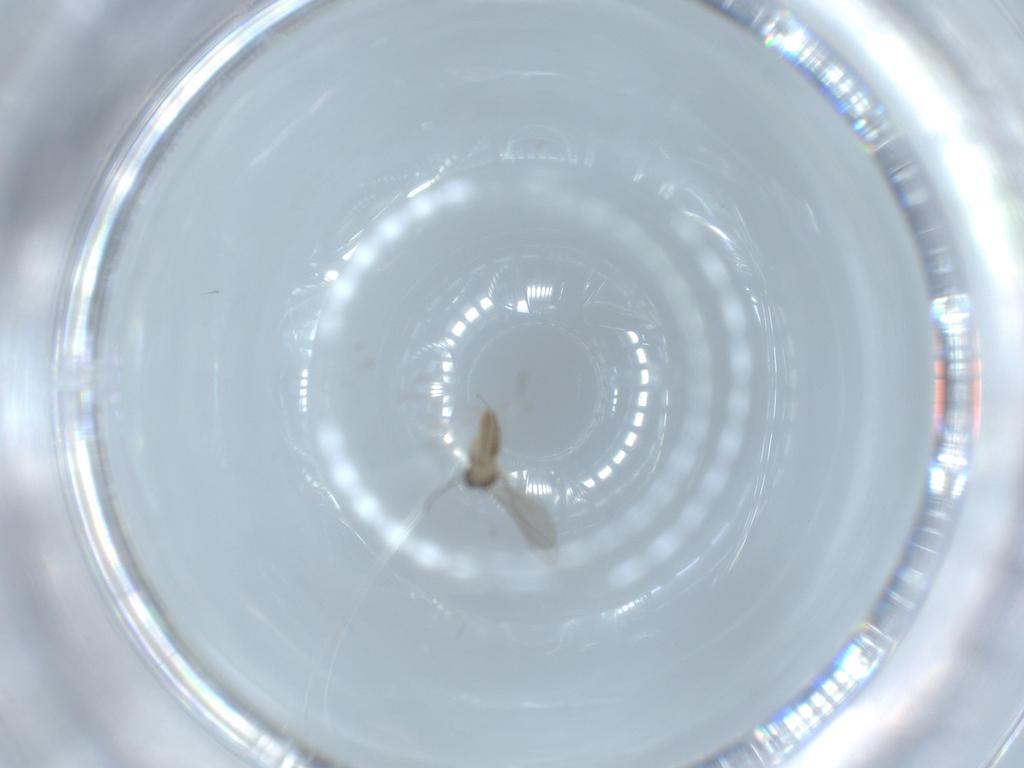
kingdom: Animalia
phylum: Arthropoda
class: Insecta
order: Diptera
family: Cecidomyiidae
